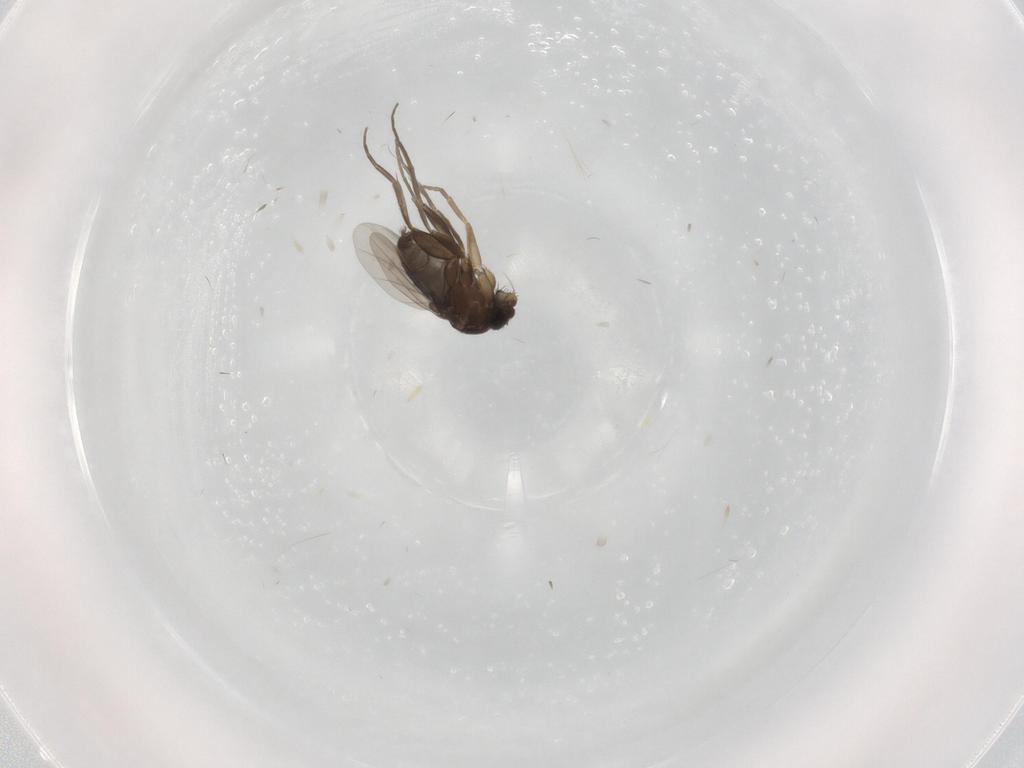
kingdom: Animalia
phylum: Arthropoda
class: Insecta
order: Diptera
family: Phoridae
